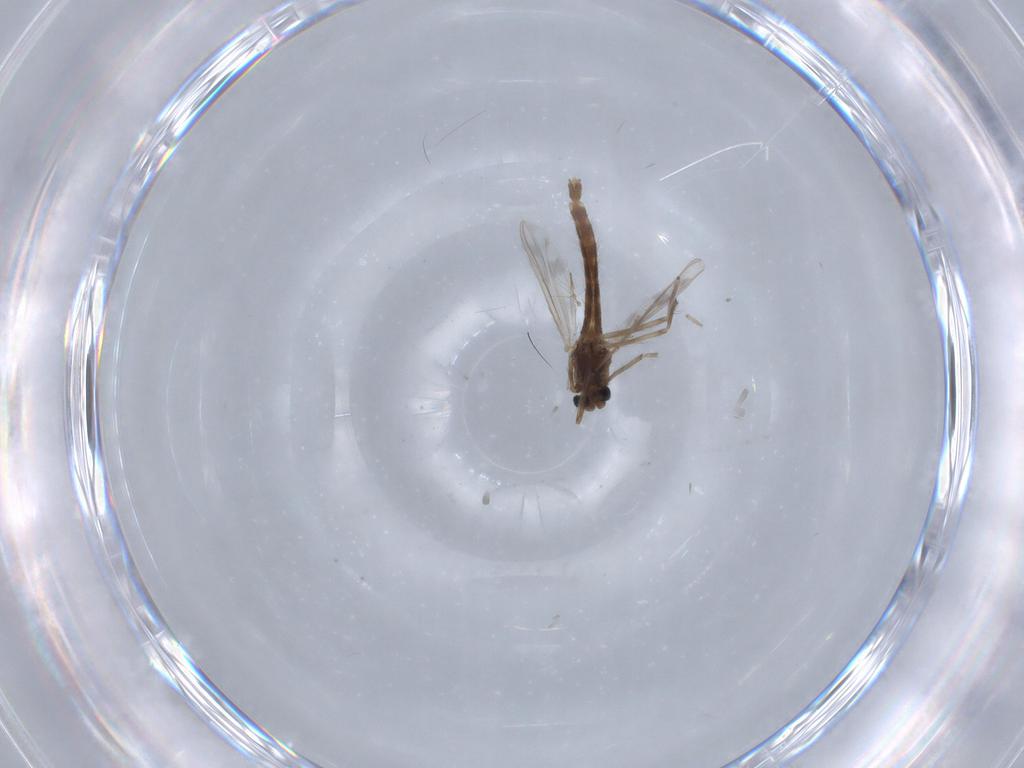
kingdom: Animalia
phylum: Arthropoda
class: Insecta
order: Diptera
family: Chironomidae
